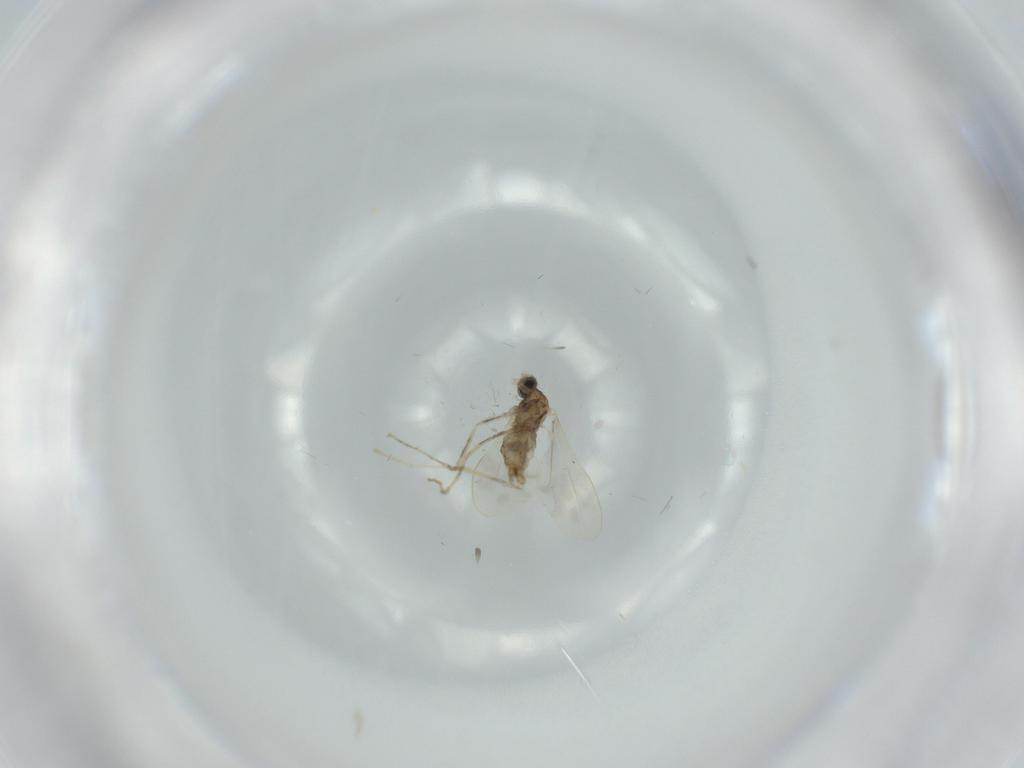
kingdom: Animalia
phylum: Arthropoda
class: Insecta
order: Diptera
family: Cecidomyiidae
